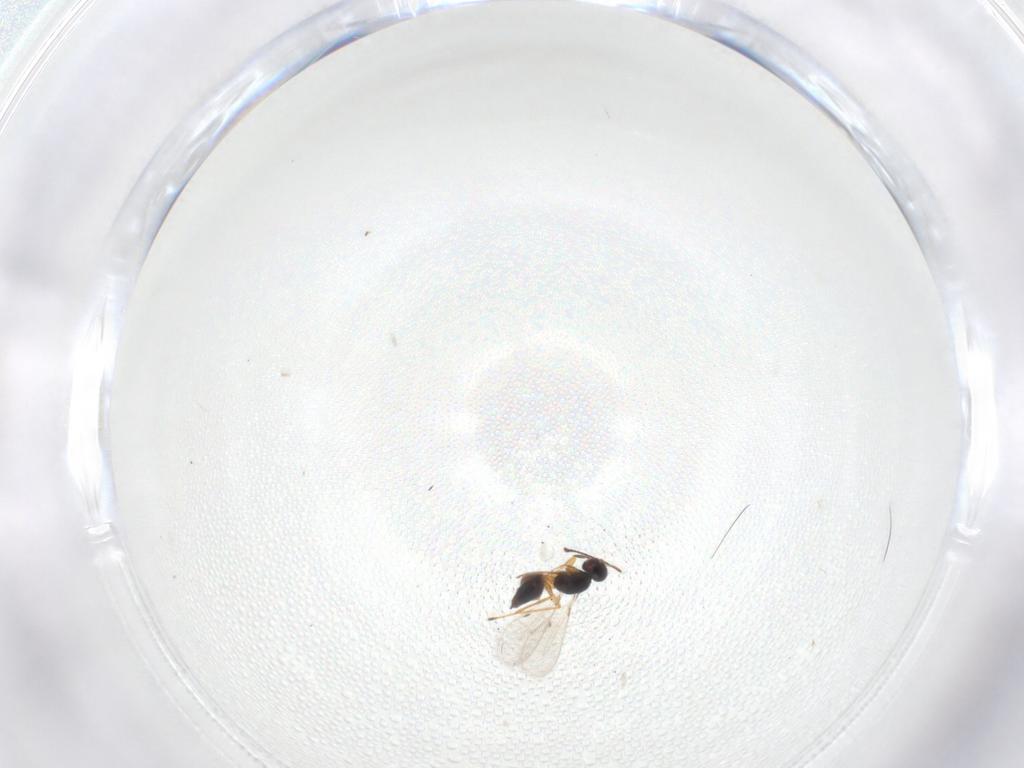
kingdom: Animalia
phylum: Arthropoda
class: Insecta
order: Hymenoptera
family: Mymaridae
